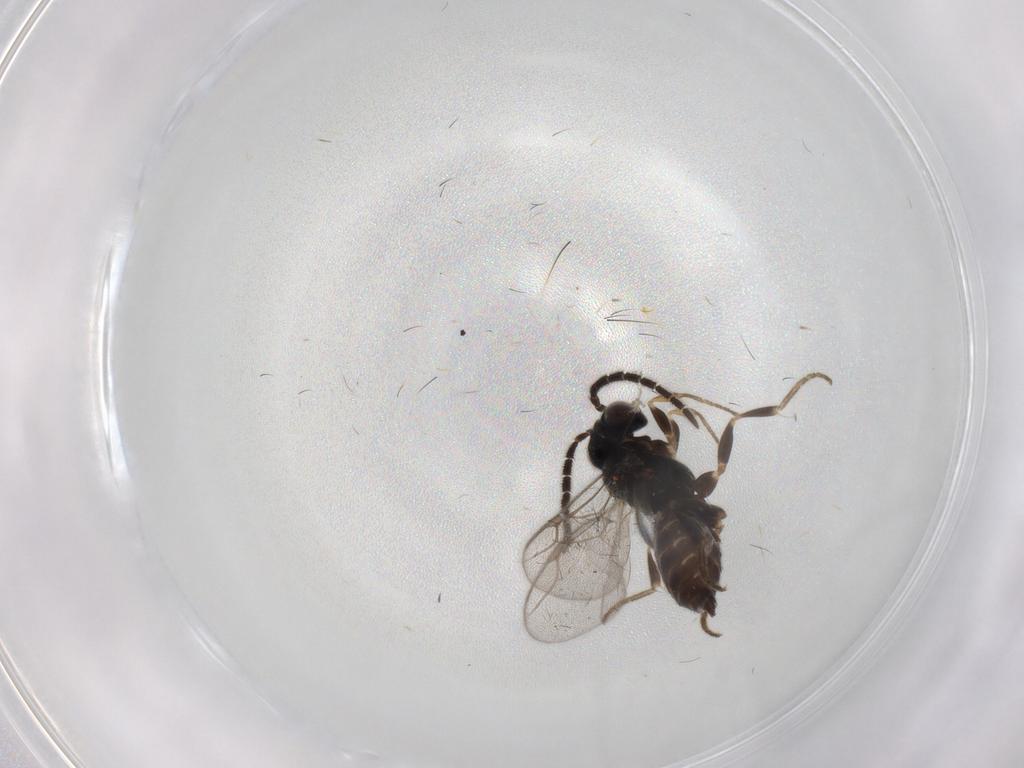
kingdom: Animalia
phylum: Arthropoda
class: Insecta
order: Hymenoptera
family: Dryinidae
